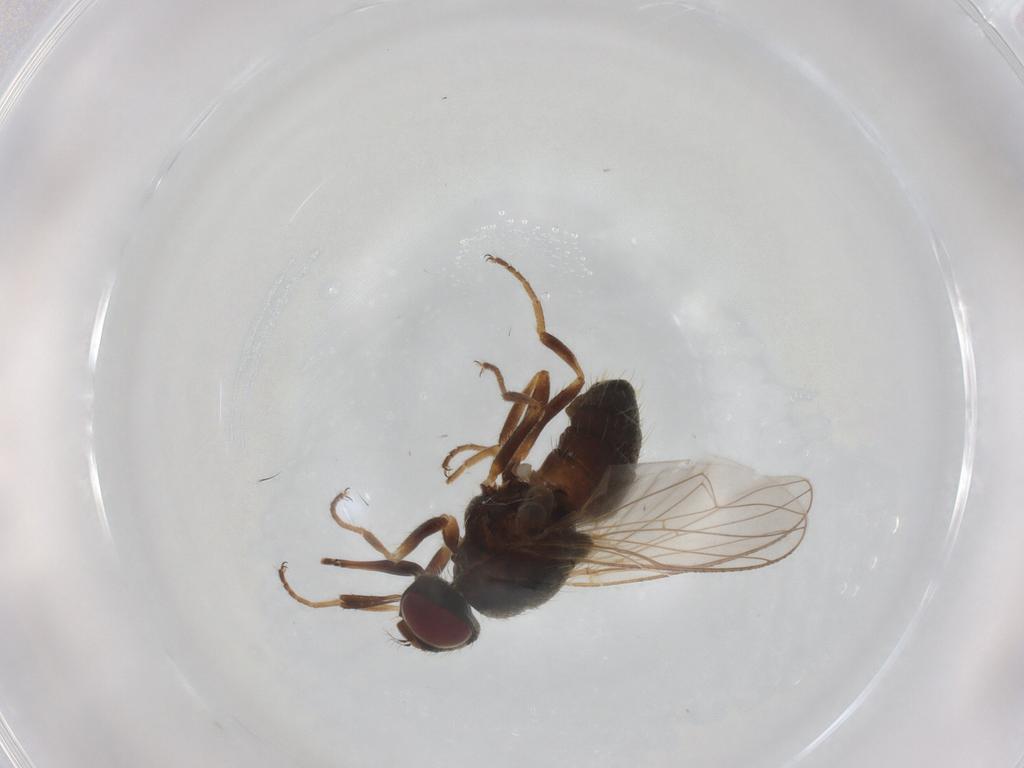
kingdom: Animalia
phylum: Arthropoda
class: Insecta
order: Diptera
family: Muscidae
